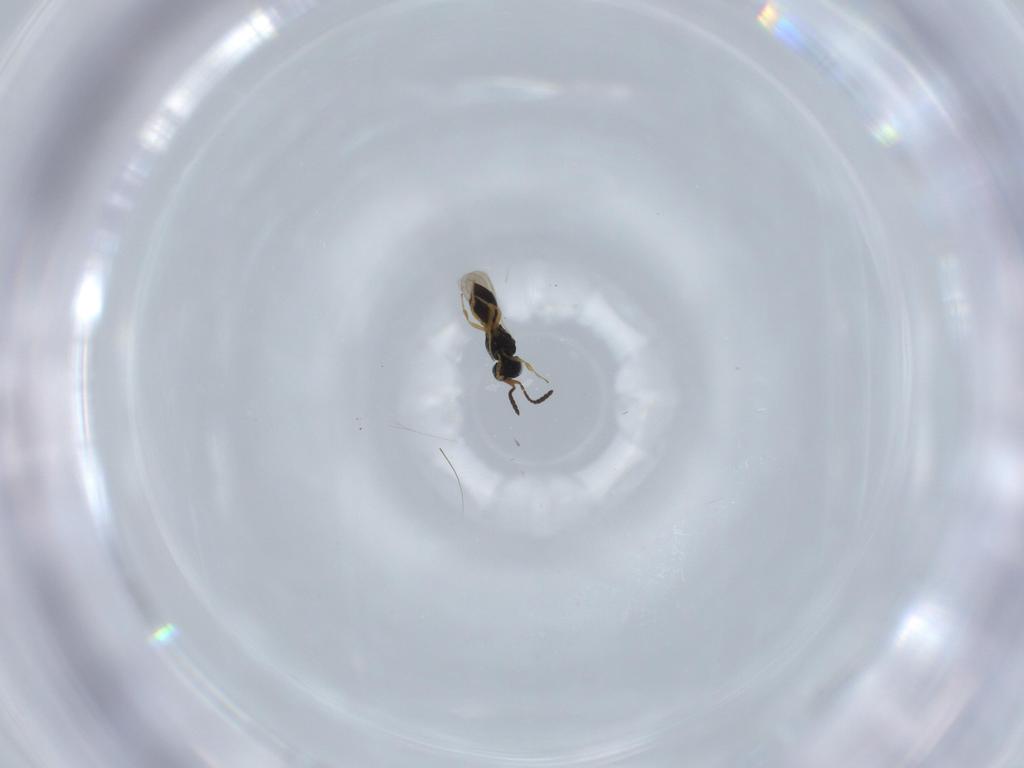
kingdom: Animalia
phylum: Arthropoda
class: Insecta
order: Hymenoptera
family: Scelionidae
